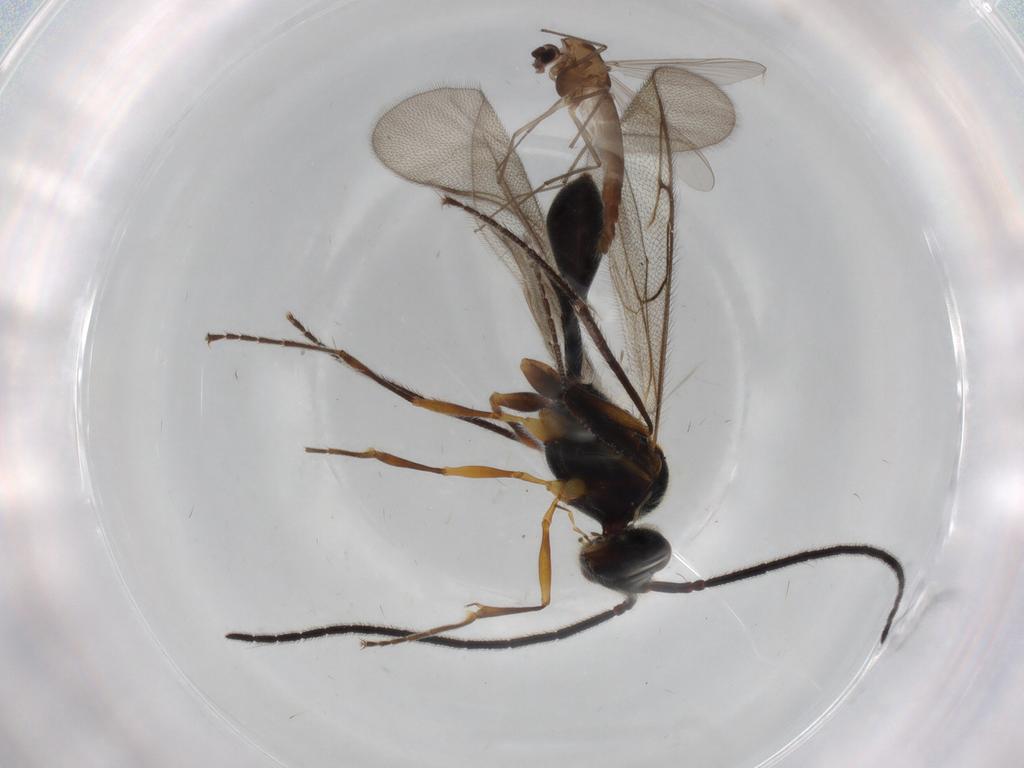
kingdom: Animalia
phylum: Arthropoda
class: Insecta
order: Diptera
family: Chironomidae
